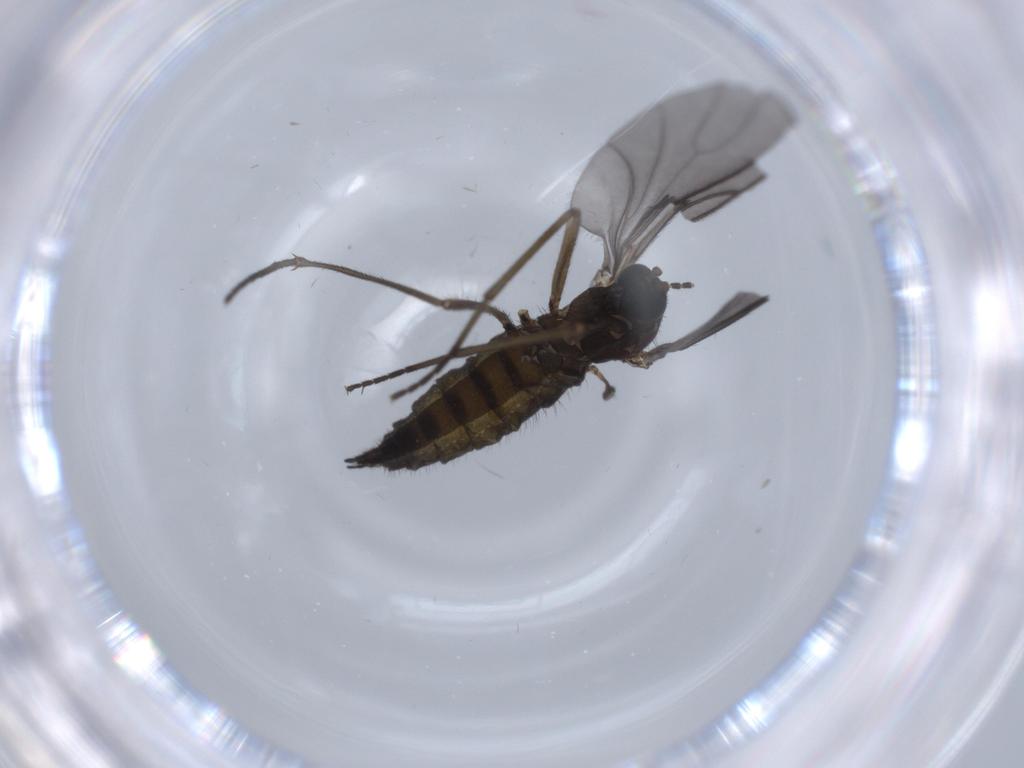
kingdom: Animalia
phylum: Arthropoda
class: Insecta
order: Diptera
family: Sciaridae
